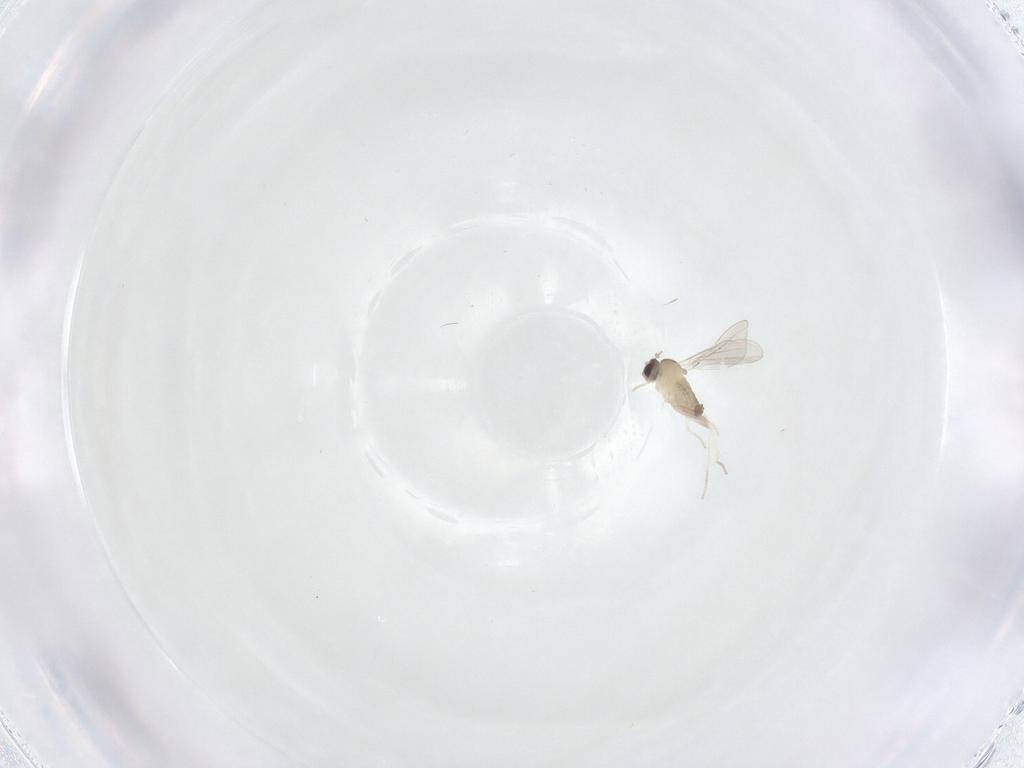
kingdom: Animalia
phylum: Arthropoda
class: Insecta
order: Diptera
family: Cecidomyiidae
